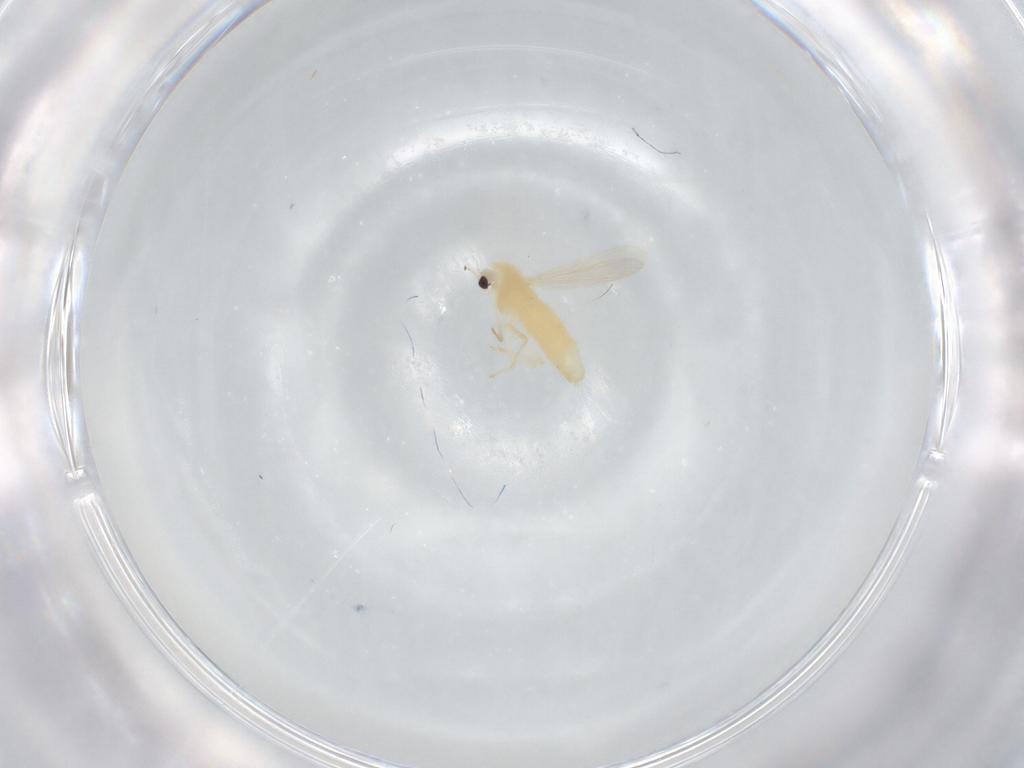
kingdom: Animalia
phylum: Arthropoda
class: Insecta
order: Diptera
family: Chironomidae
